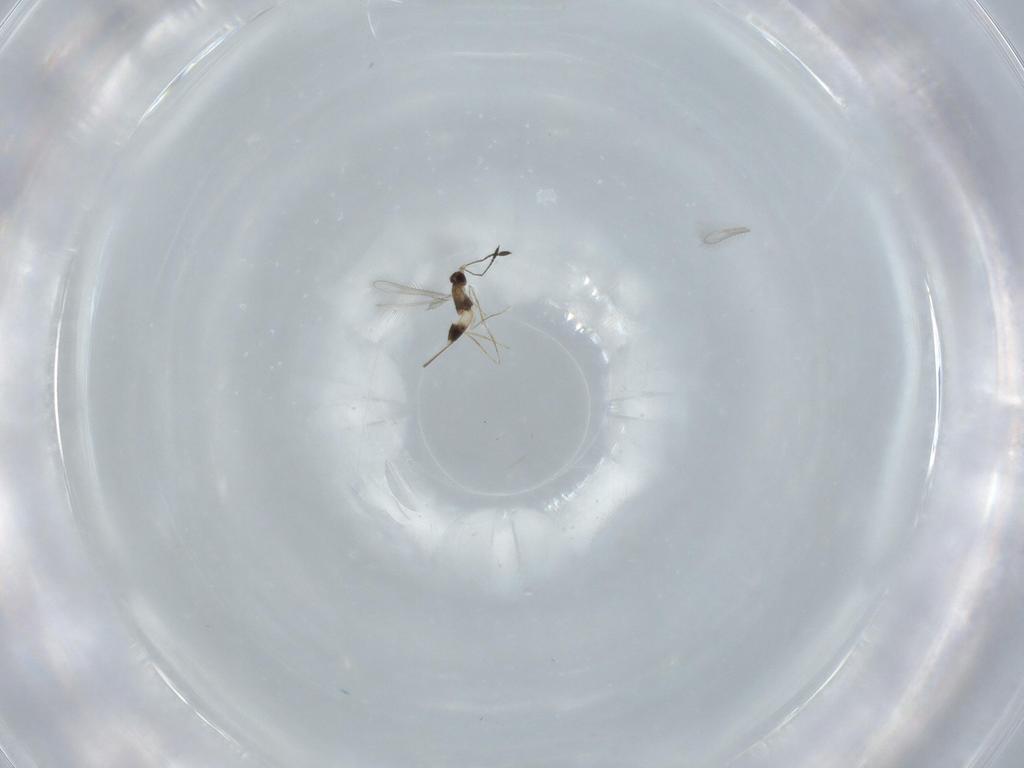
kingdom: Animalia
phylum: Arthropoda
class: Insecta
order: Hymenoptera
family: Mymaridae
